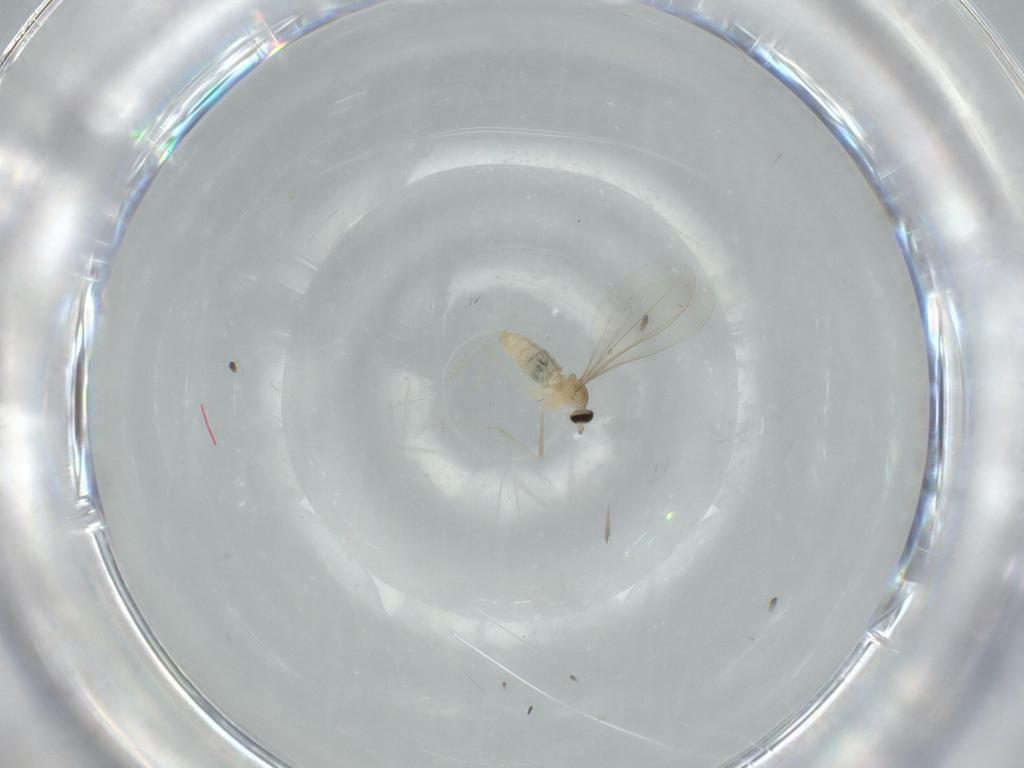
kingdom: Animalia
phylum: Arthropoda
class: Insecta
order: Diptera
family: Cecidomyiidae
